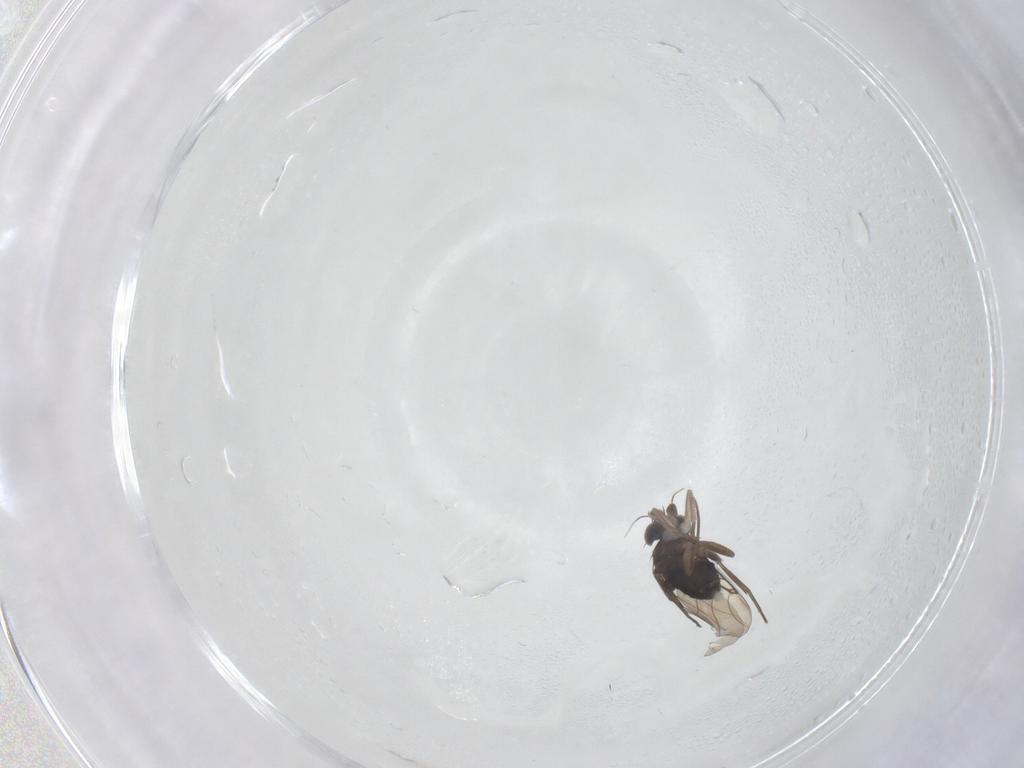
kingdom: Animalia
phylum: Arthropoda
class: Insecta
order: Diptera
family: Phoridae
